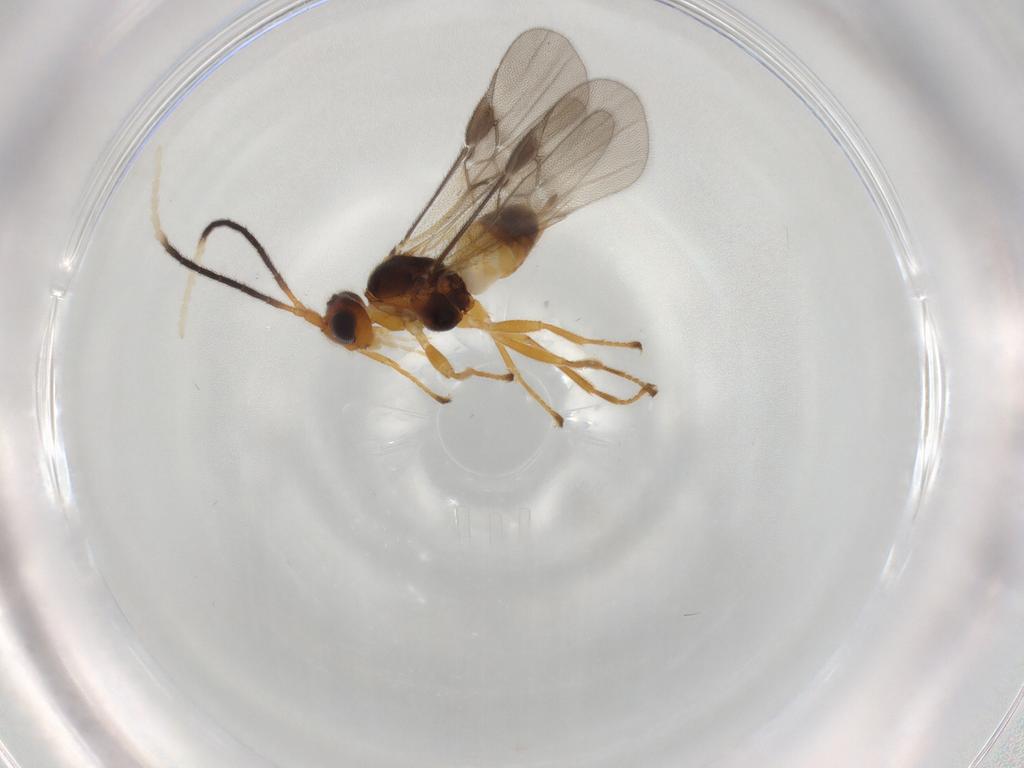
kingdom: Animalia
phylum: Arthropoda
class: Insecta
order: Hymenoptera
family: Braconidae
